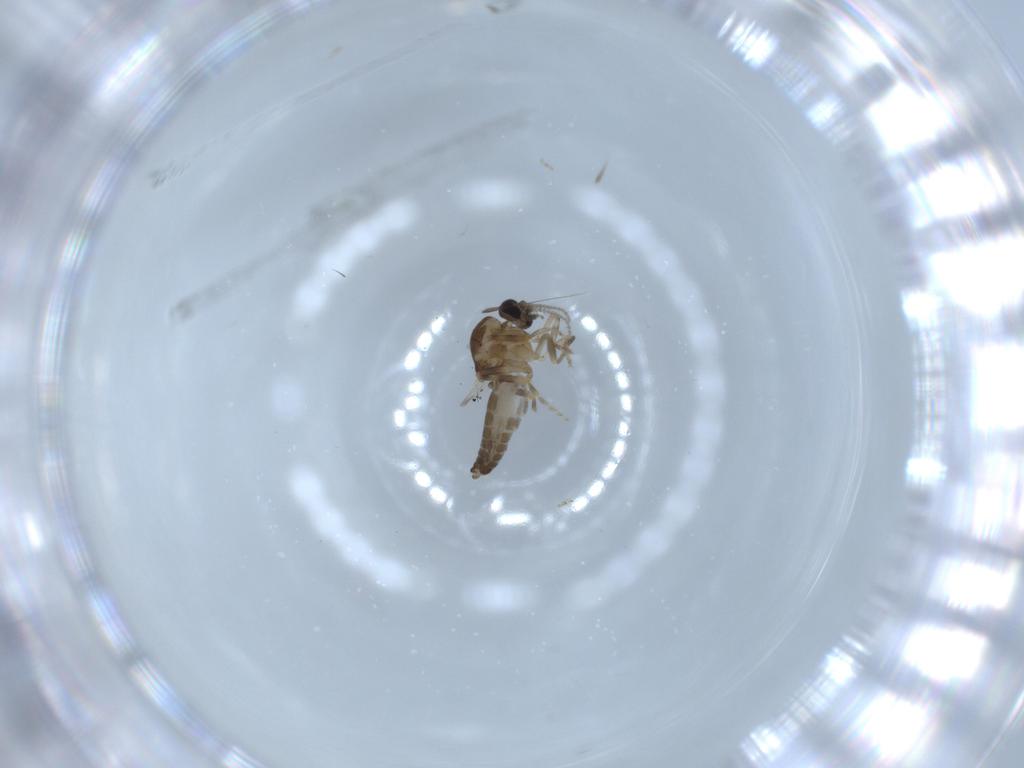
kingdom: Animalia
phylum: Arthropoda
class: Insecta
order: Diptera
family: Ceratopogonidae
